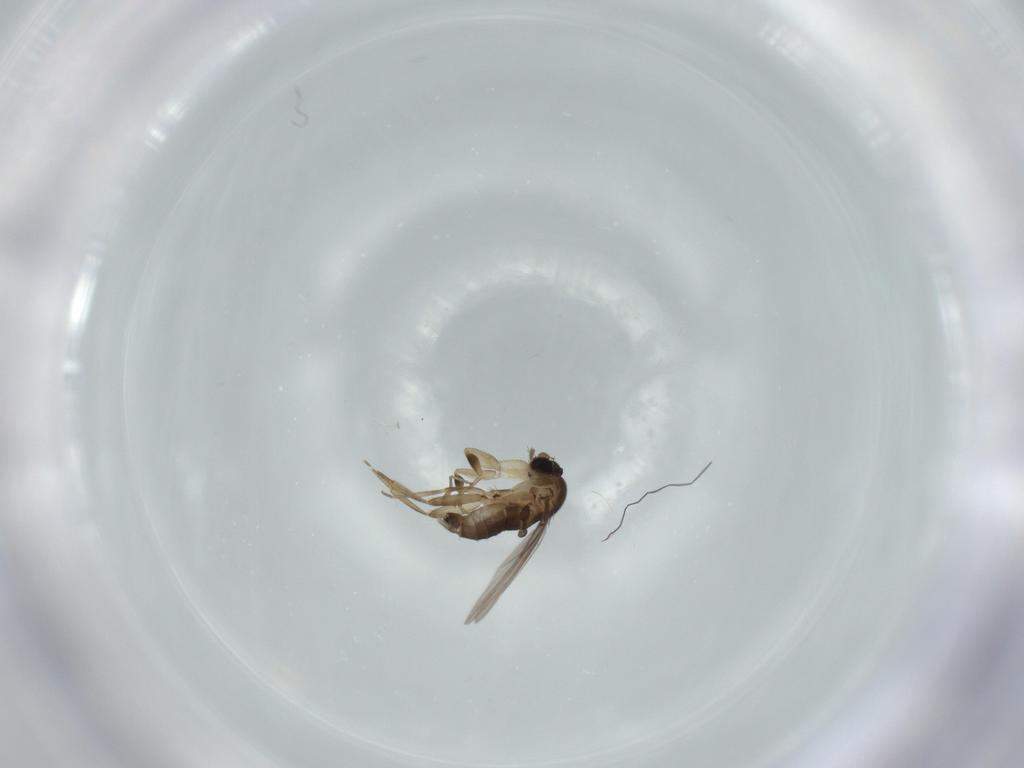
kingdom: Animalia
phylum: Arthropoda
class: Insecta
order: Diptera
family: Phoridae
